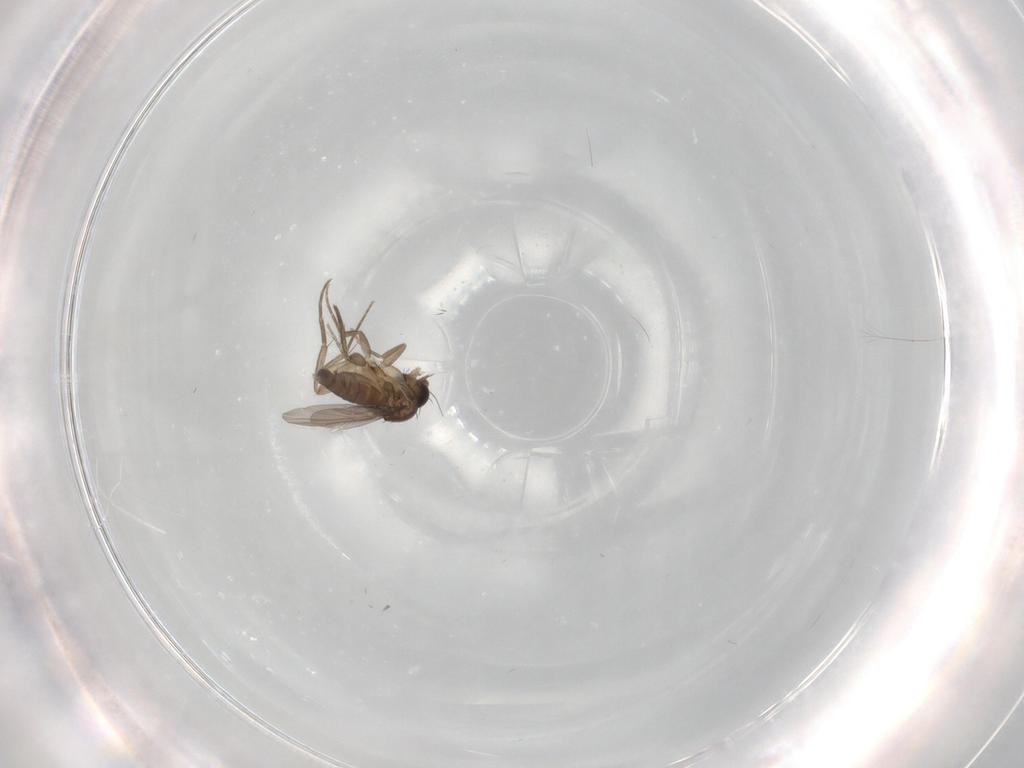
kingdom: Animalia
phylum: Arthropoda
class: Insecta
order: Diptera
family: Phoridae
